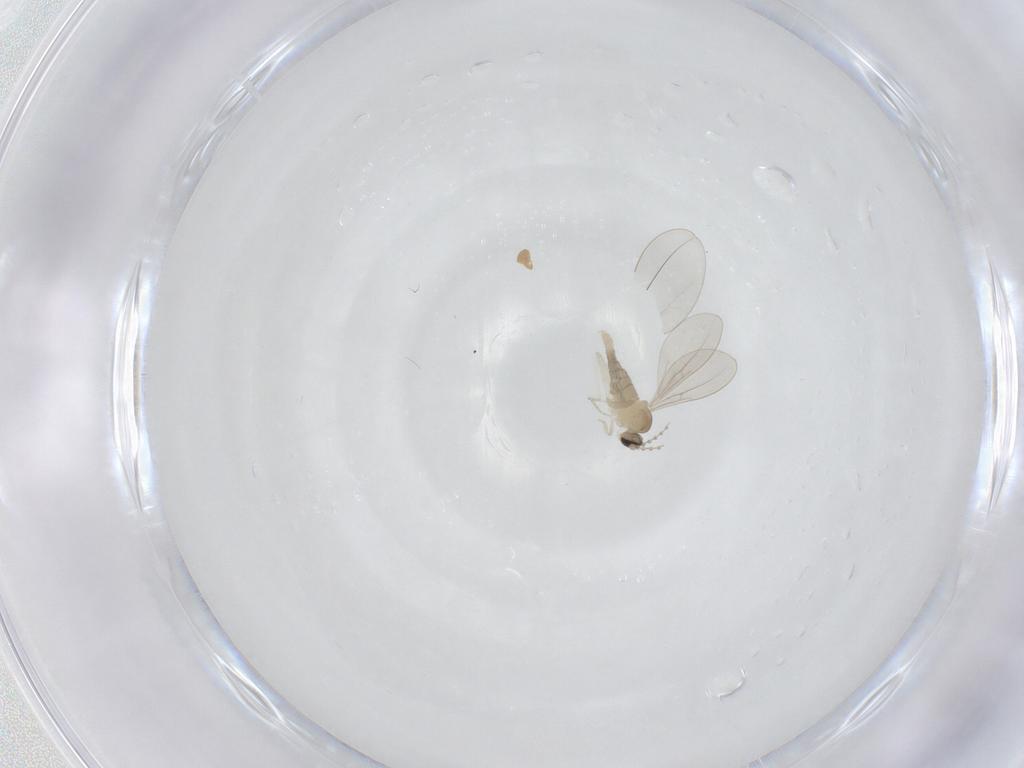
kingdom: Animalia
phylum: Arthropoda
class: Insecta
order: Diptera
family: Cecidomyiidae
